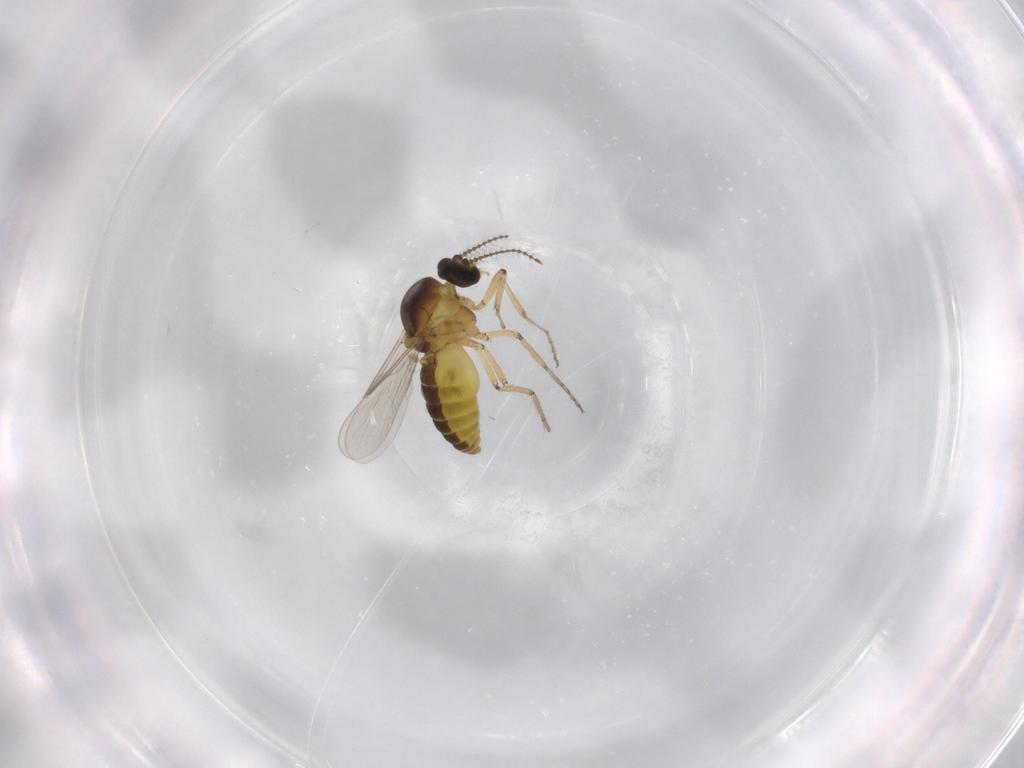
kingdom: Animalia
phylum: Arthropoda
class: Insecta
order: Diptera
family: Ceratopogonidae
